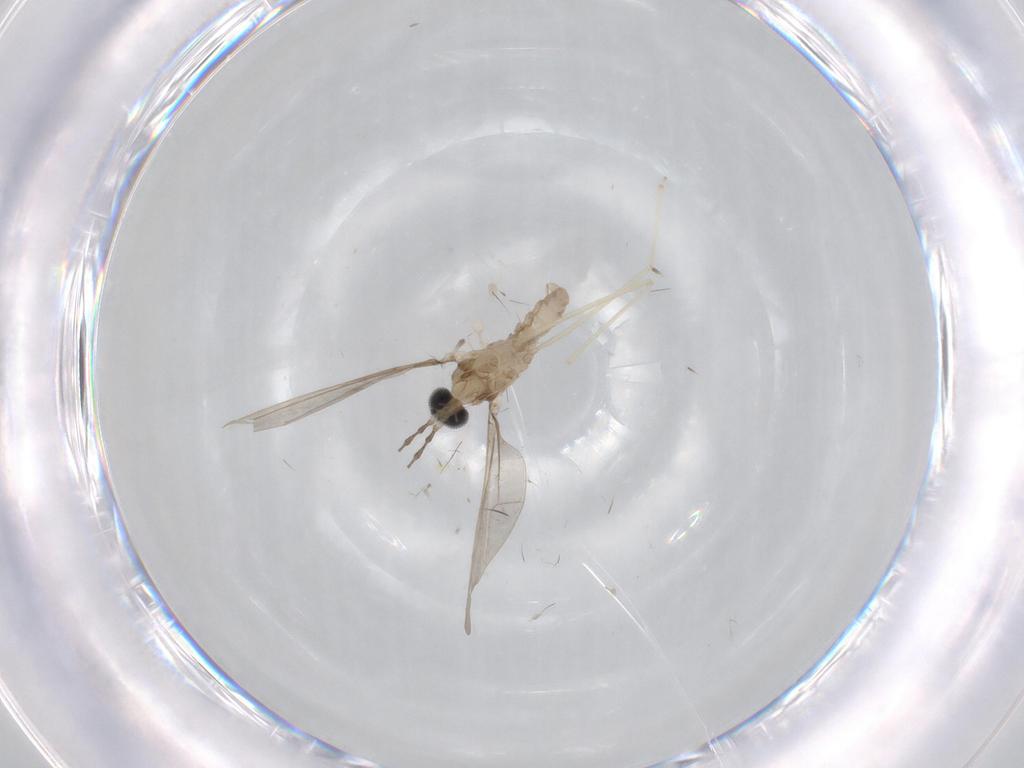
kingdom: Animalia
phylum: Arthropoda
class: Insecta
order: Diptera
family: Cecidomyiidae
